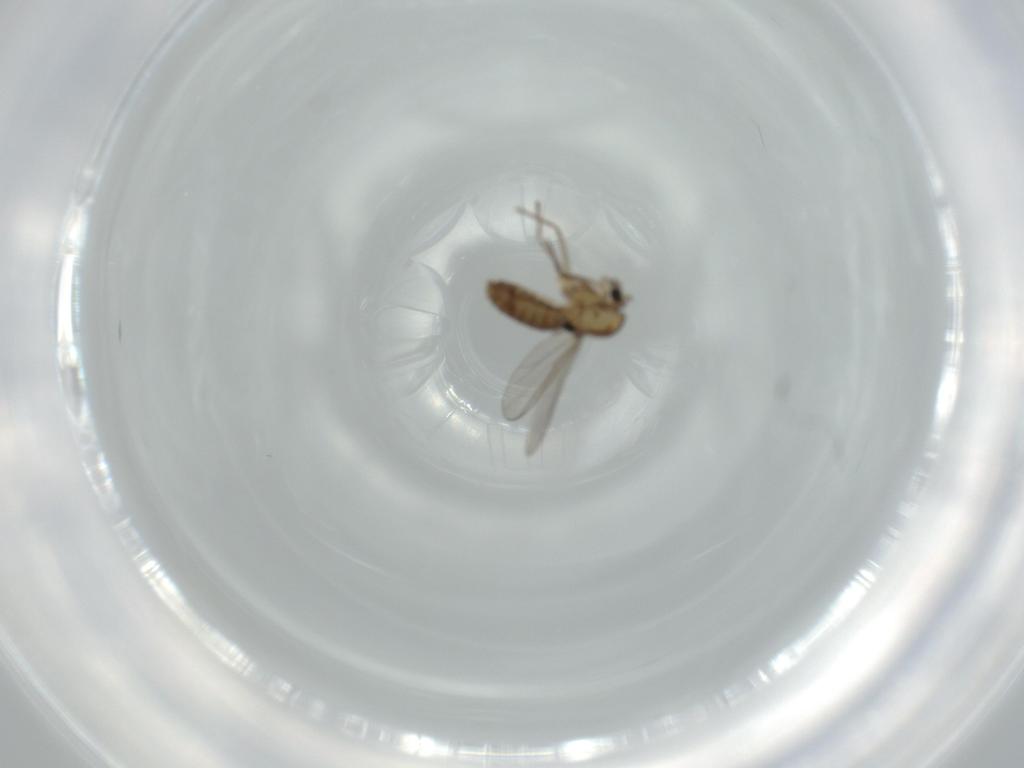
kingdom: Animalia
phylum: Arthropoda
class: Insecta
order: Diptera
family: Chironomidae
